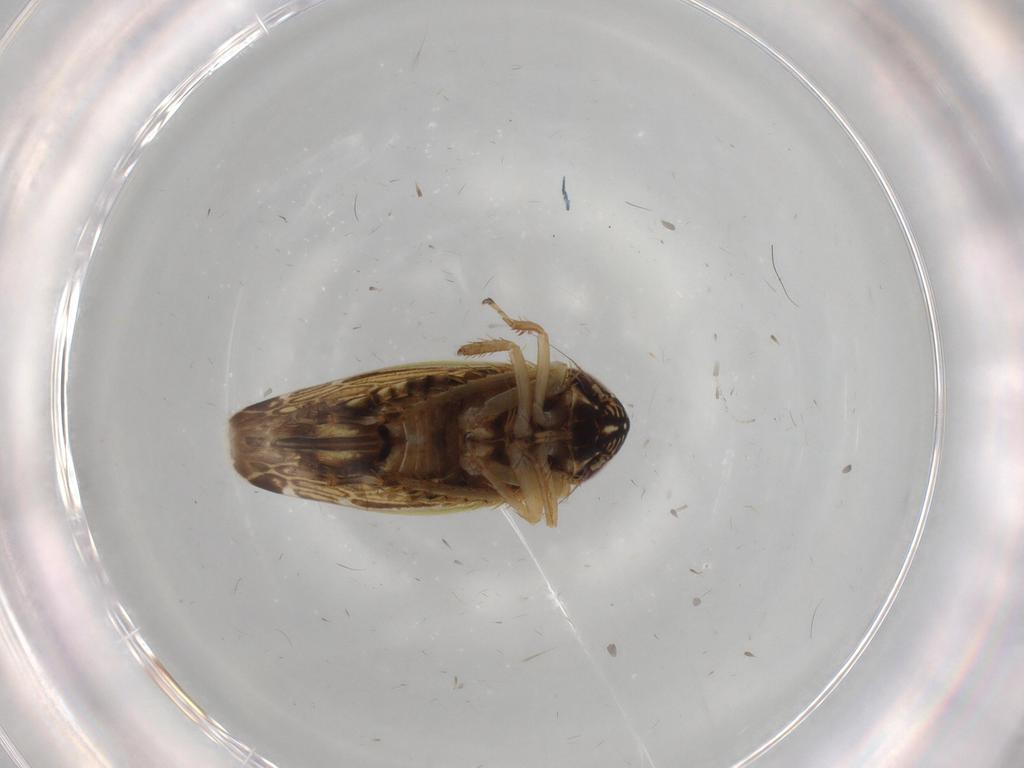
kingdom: Animalia
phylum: Arthropoda
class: Insecta
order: Hemiptera
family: Cicadellidae
